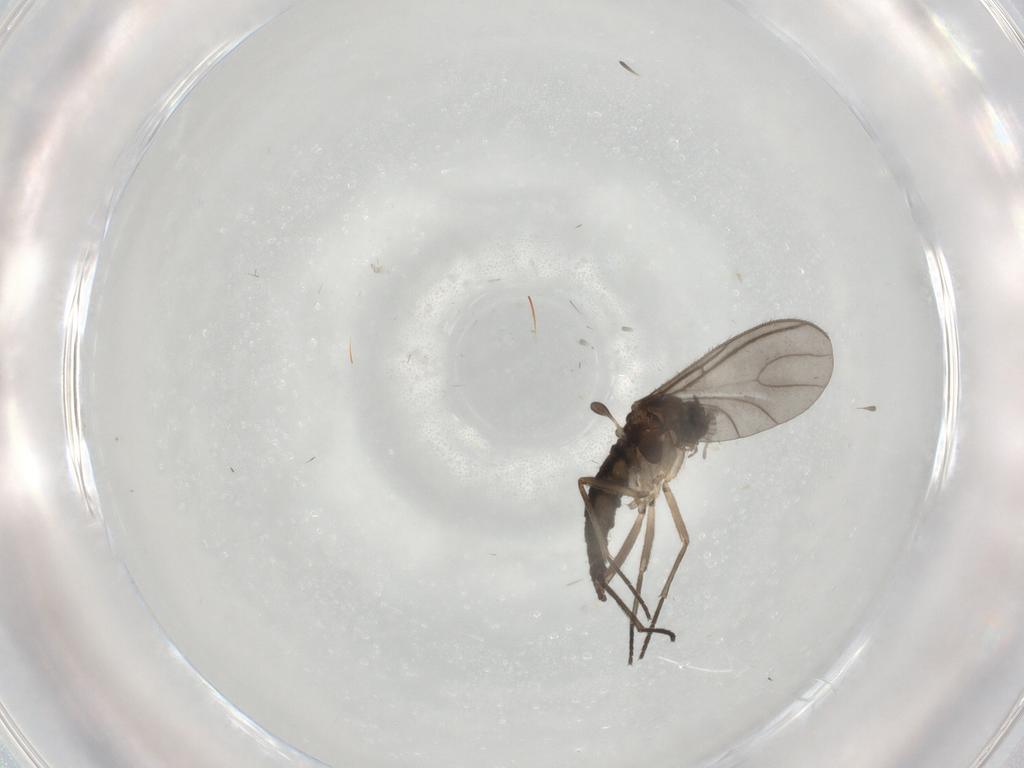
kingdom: Animalia
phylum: Arthropoda
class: Insecta
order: Diptera
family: Sciaridae
